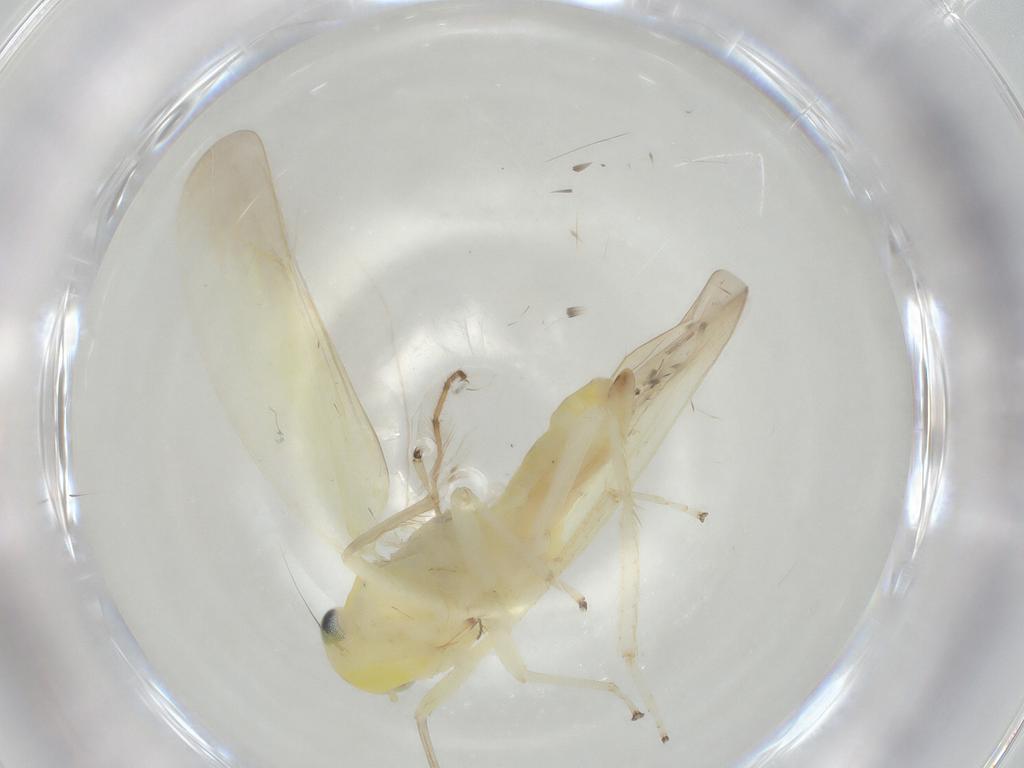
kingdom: Animalia
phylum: Arthropoda
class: Insecta
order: Hemiptera
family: Cicadellidae
